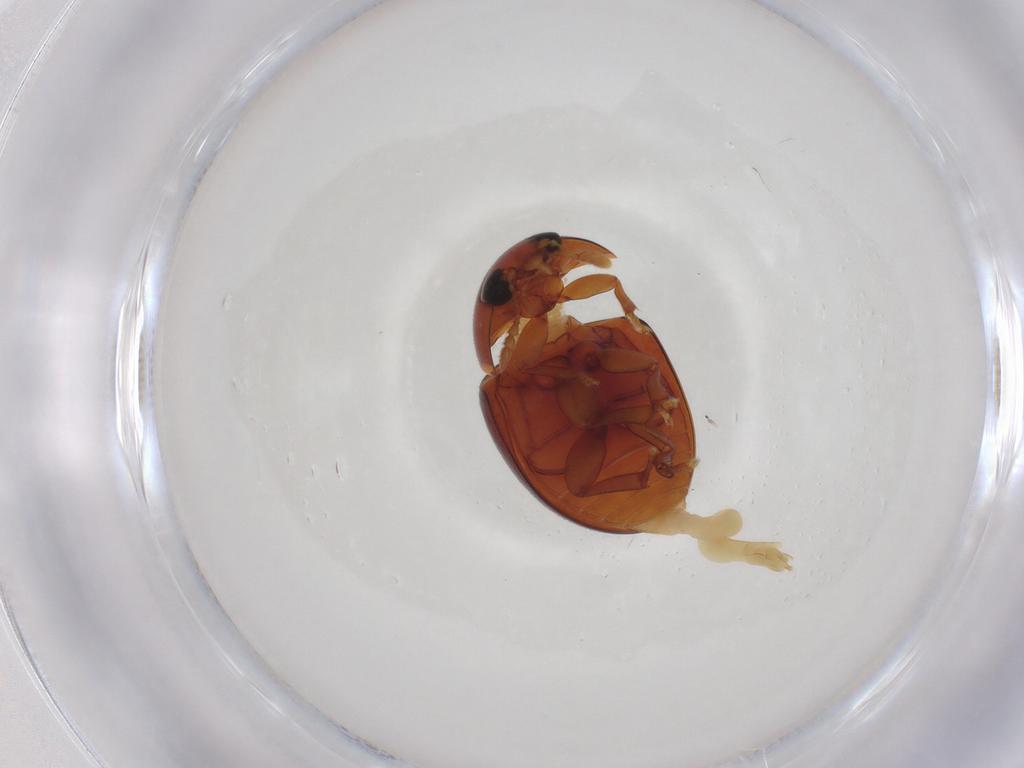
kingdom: Animalia
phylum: Arthropoda
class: Insecta
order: Coleoptera
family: Phalacridae
